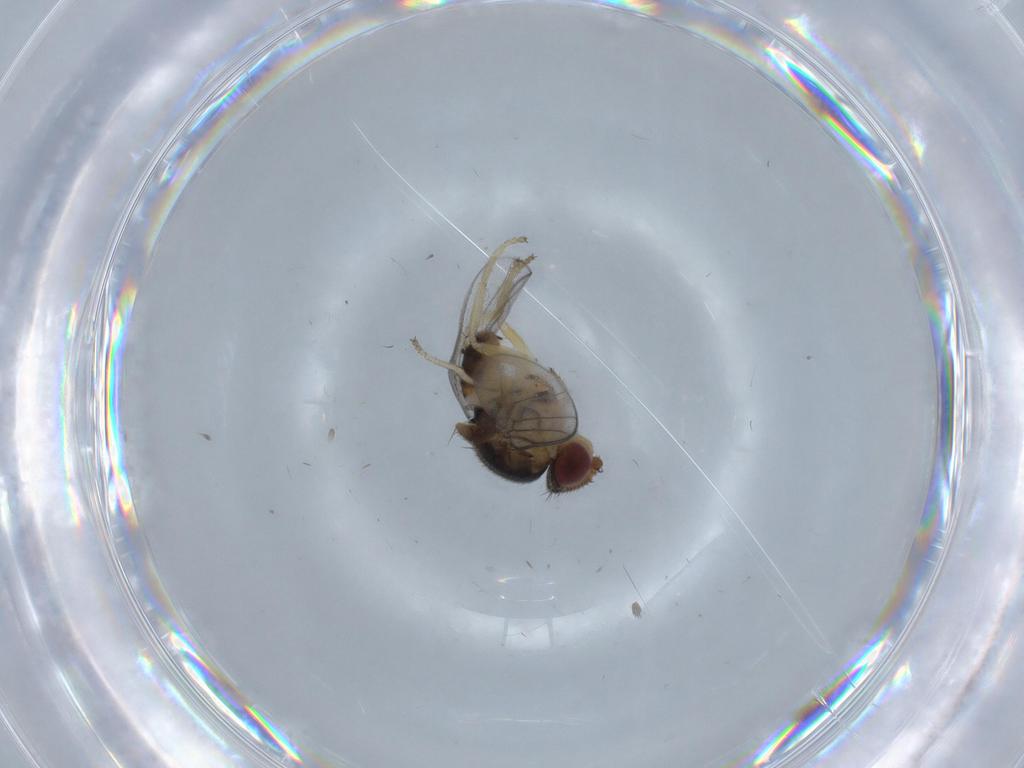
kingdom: Animalia
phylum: Arthropoda
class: Insecta
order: Diptera
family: Chloropidae
